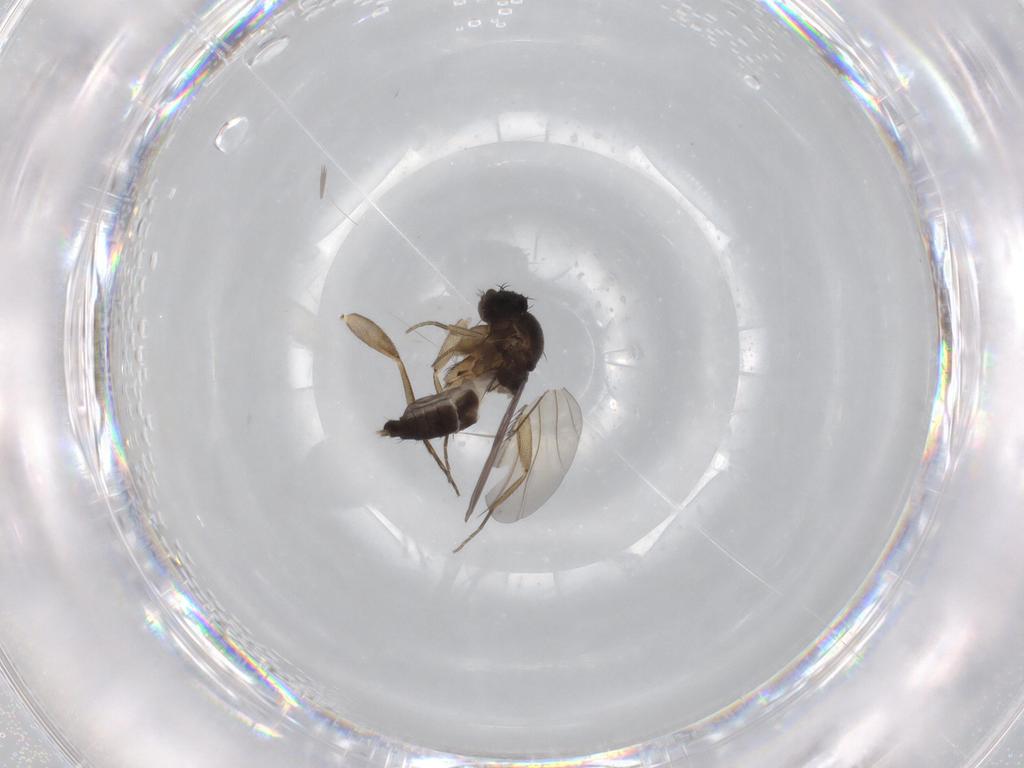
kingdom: Animalia
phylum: Arthropoda
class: Insecta
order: Diptera
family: Phoridae
